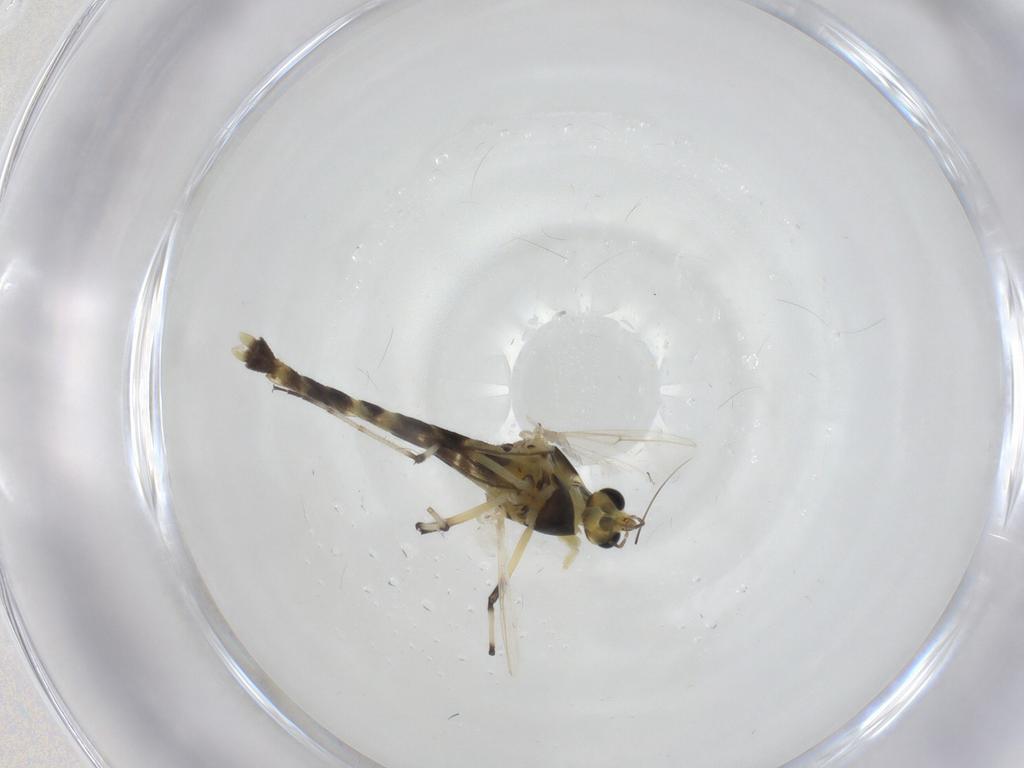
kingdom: Animalia
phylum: Arthropoda
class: Insecta
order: Diptera
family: Chironomidae
